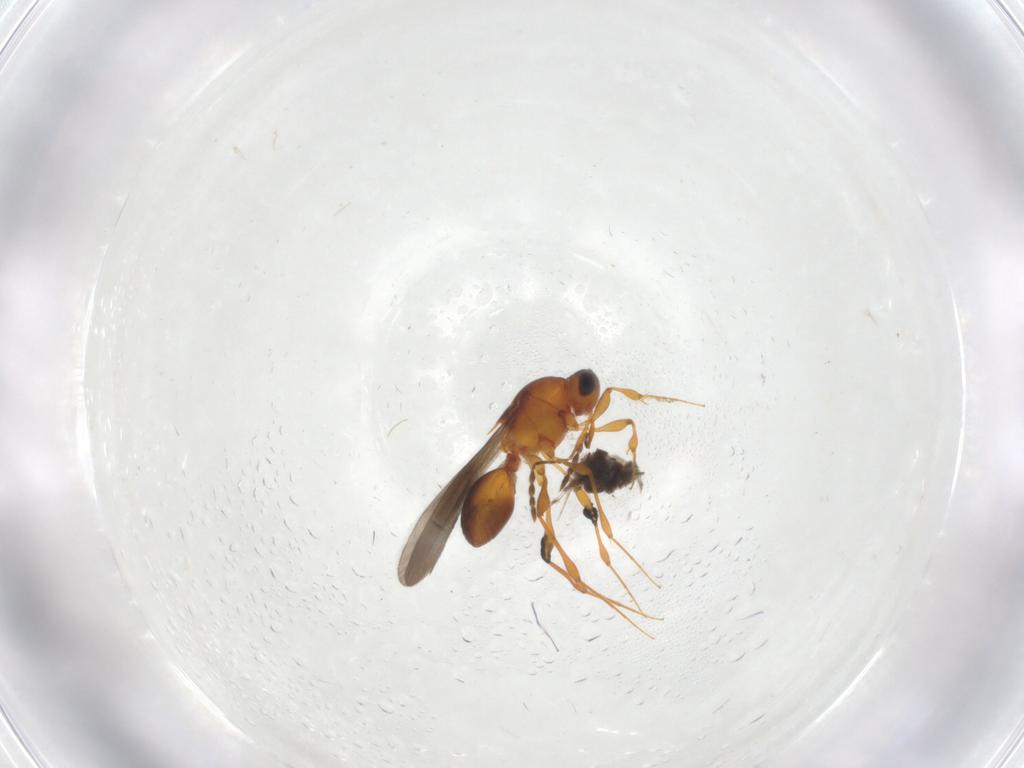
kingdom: Animalia
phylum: Arthropoda
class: Insecta
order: Hymenoptera
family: Platygastridae
